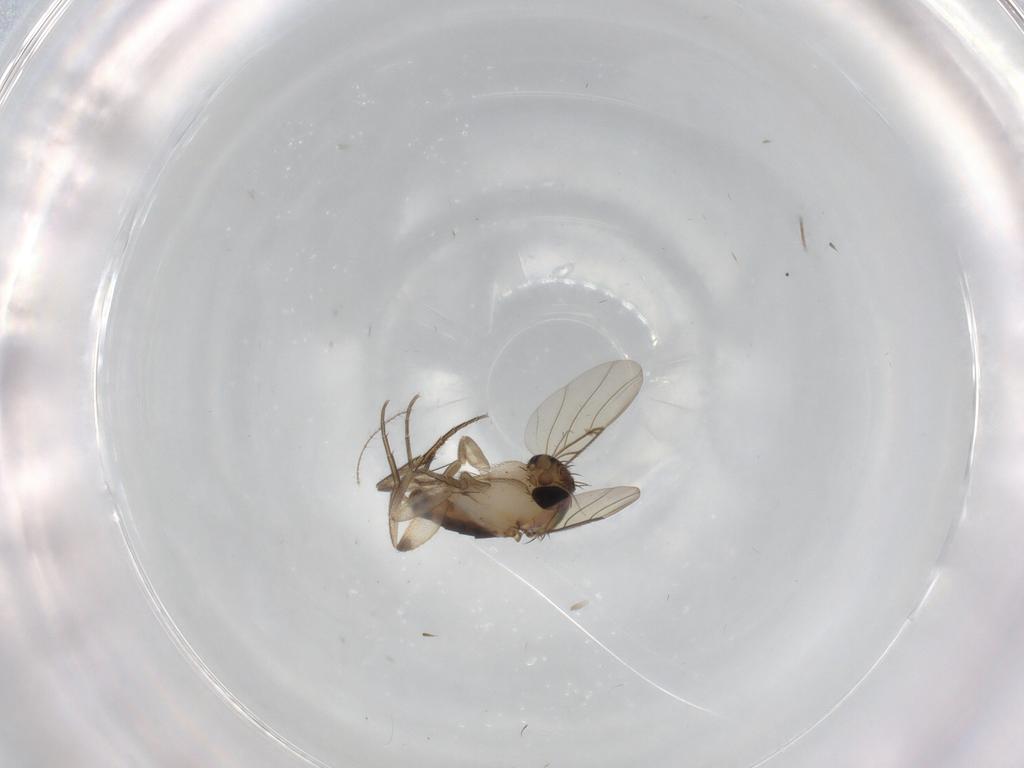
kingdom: Animalia
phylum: Arthropoda
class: Insecta
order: Diptera
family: Phoridae
